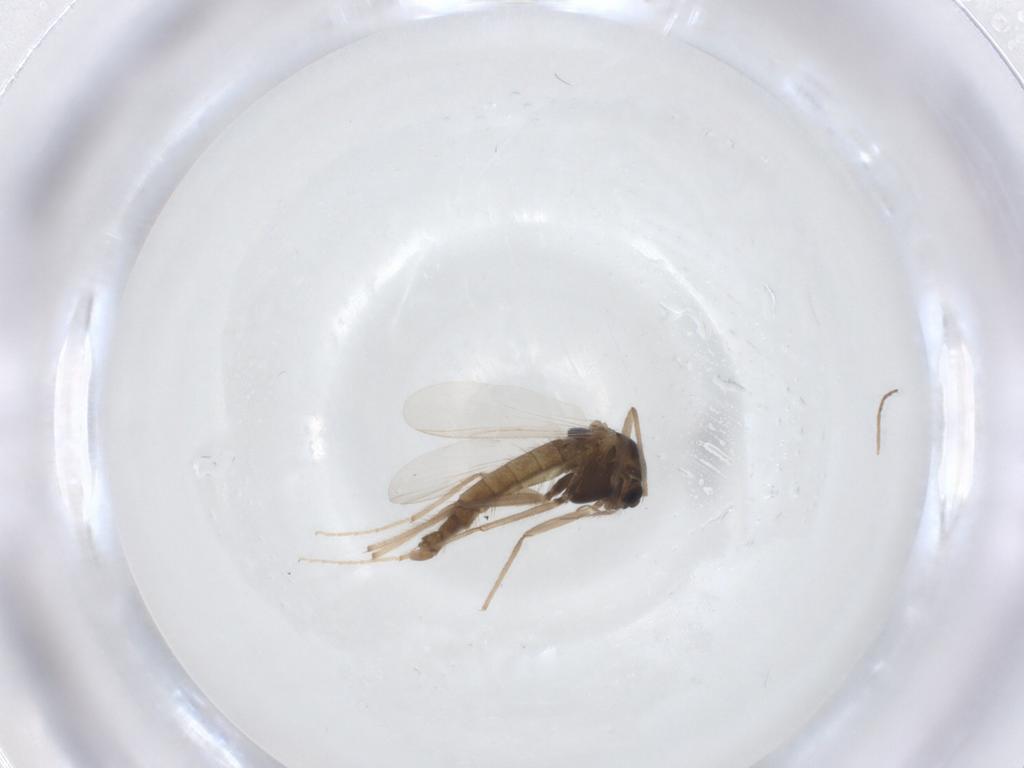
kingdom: Animalia
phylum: Arthropoda
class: Insecta
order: Diptera
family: Chironomidae
